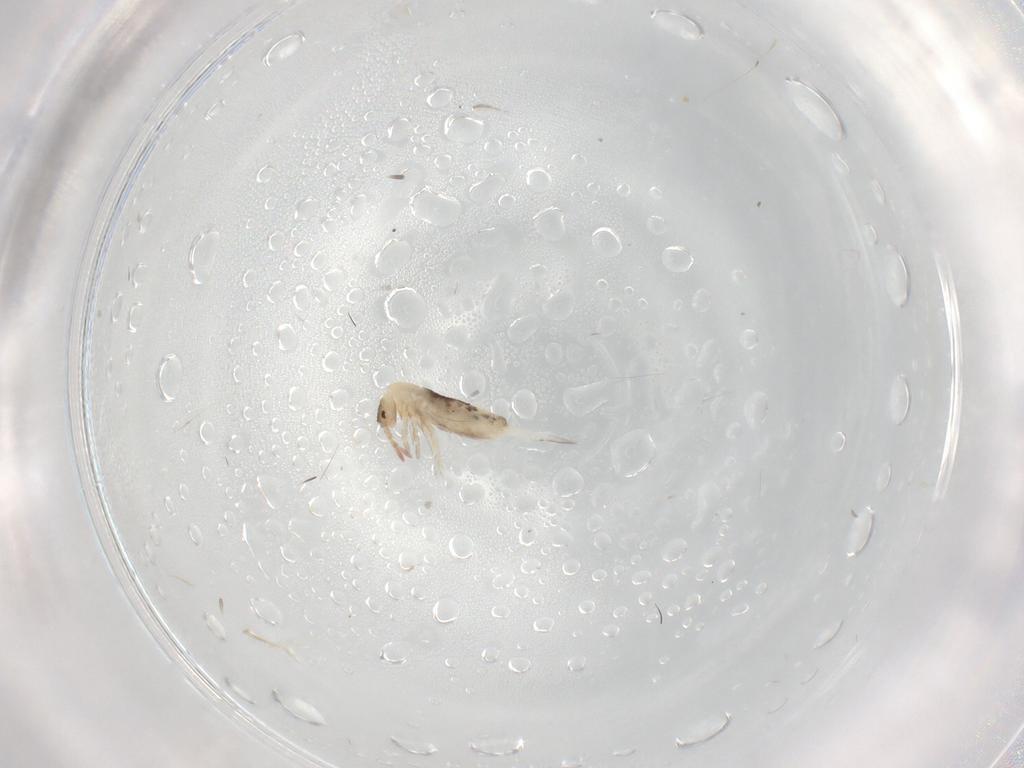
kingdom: Animalia
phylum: Arthropoda
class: Collembola
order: Entomobryomorpha
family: Entomobryidae
